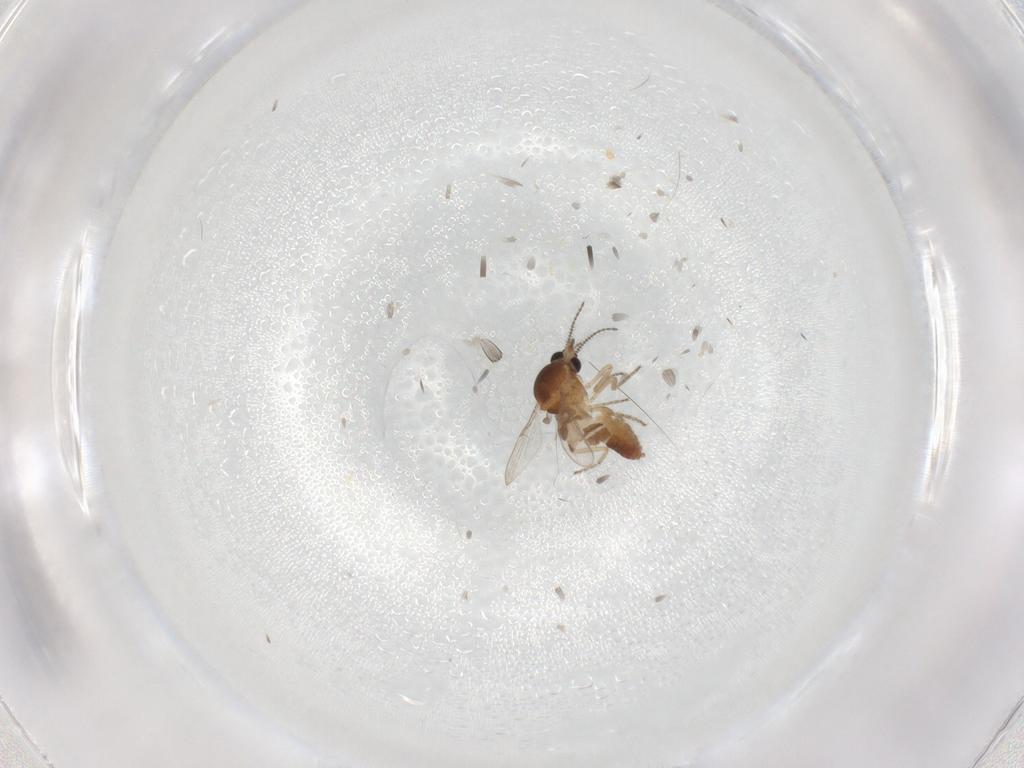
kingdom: Animalia
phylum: Arthropoda
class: Insecta
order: Diptera
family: Ceratopogonidae
